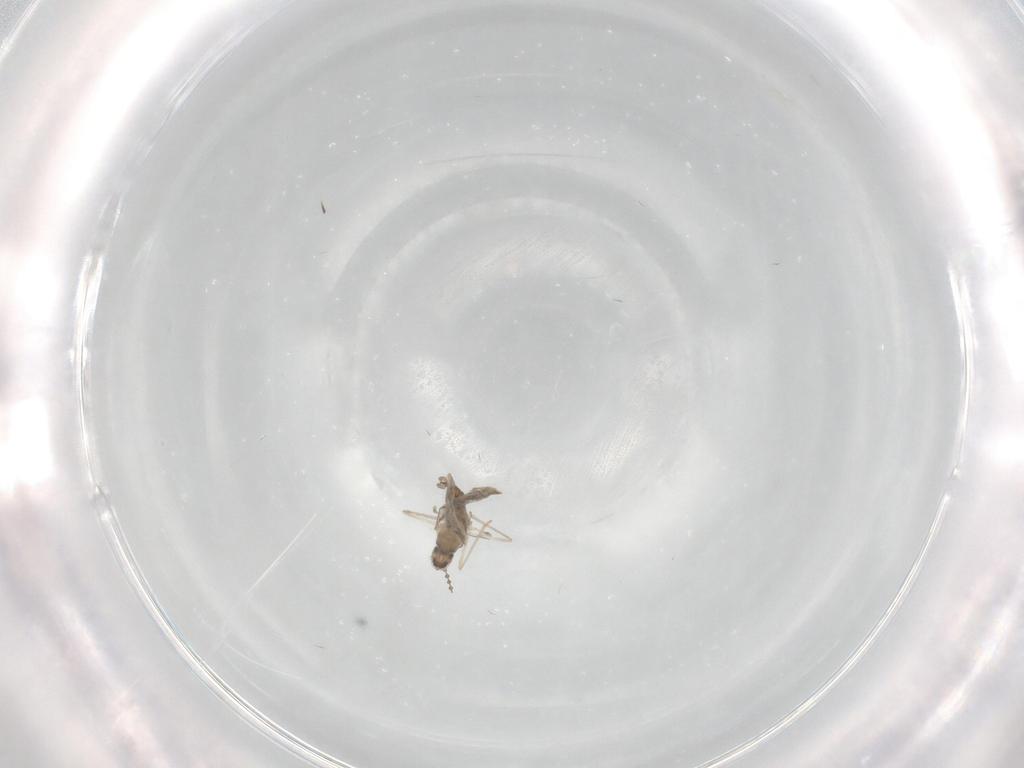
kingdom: Animalia
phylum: Arthropoda
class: Insecta
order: Diptera
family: Cecidomyiidae
